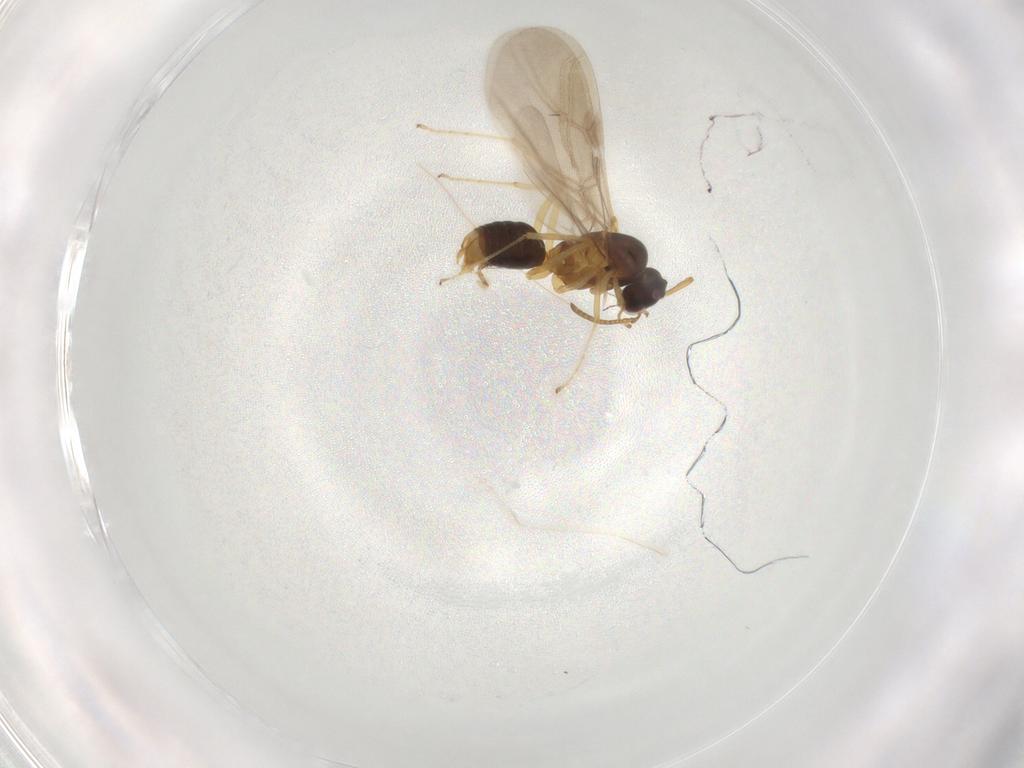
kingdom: Animalia
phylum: Arthropoda
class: Insecta
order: Hymenoptera
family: Formicidae
